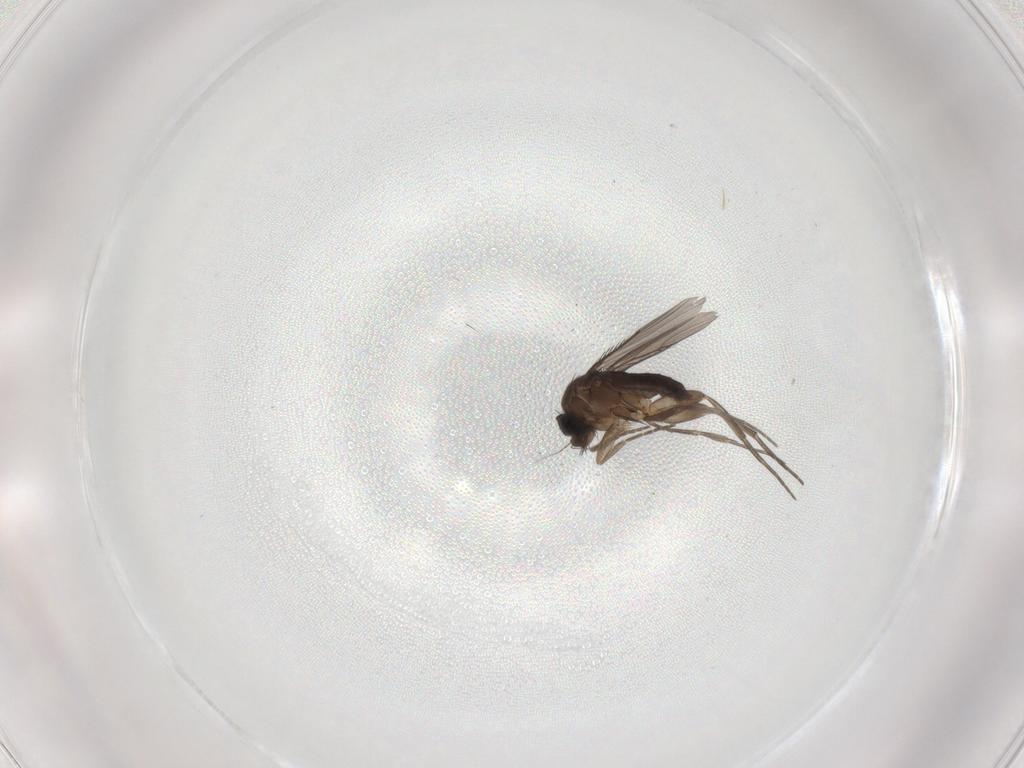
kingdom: Animalia
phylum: Arthropoda
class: Insecta
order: Diptera
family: Phoridae
